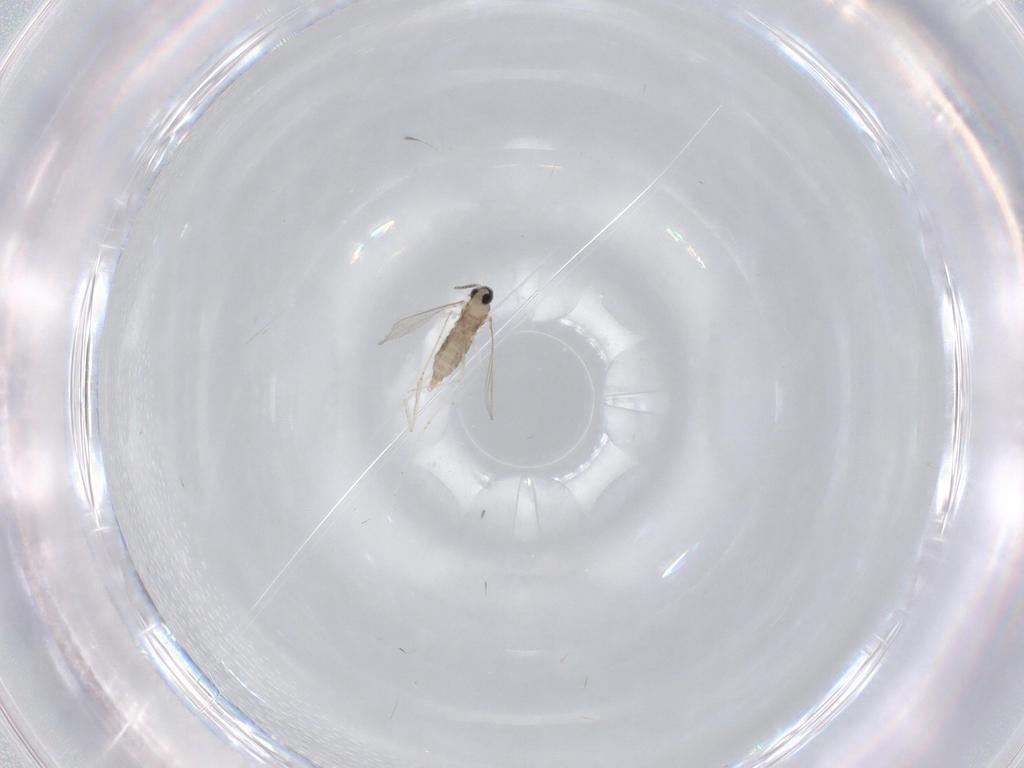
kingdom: Animalia
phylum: Arthropoda
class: Insecta
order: Diptera
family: Cecidomyiidae
